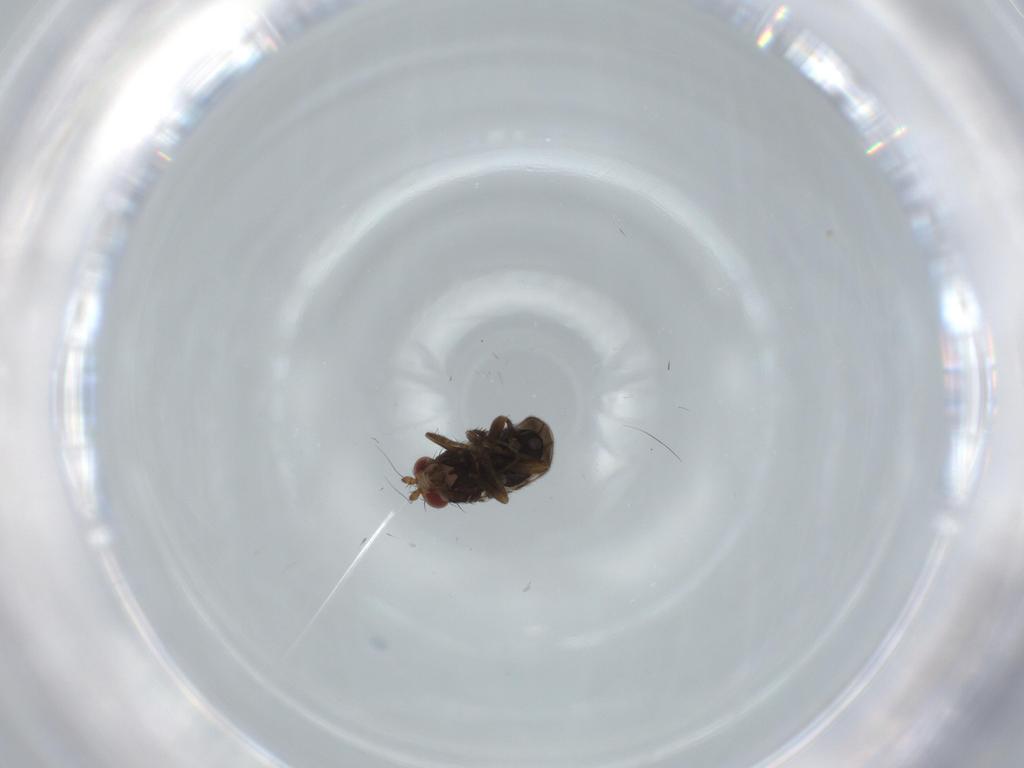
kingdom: Animalia
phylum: Arthropoda
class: Insecta
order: Diptera
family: Sphaeroceridae
